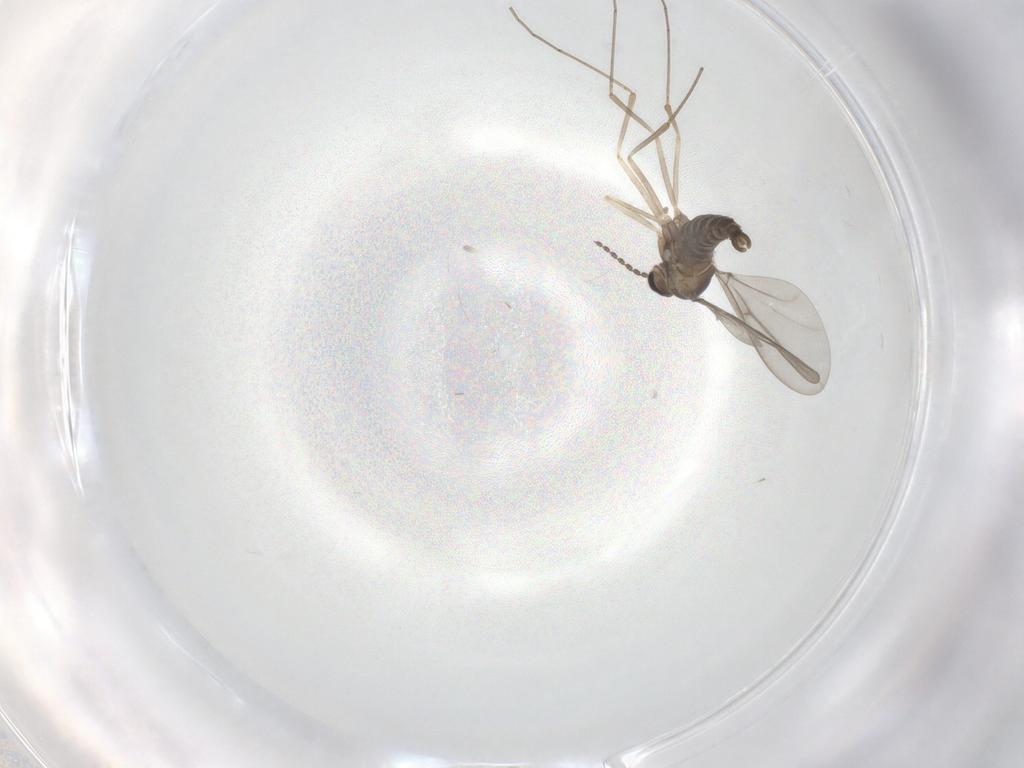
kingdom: Animalia
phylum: Arthropoda
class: Insecta
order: Diptera
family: Cecidomyiidae
